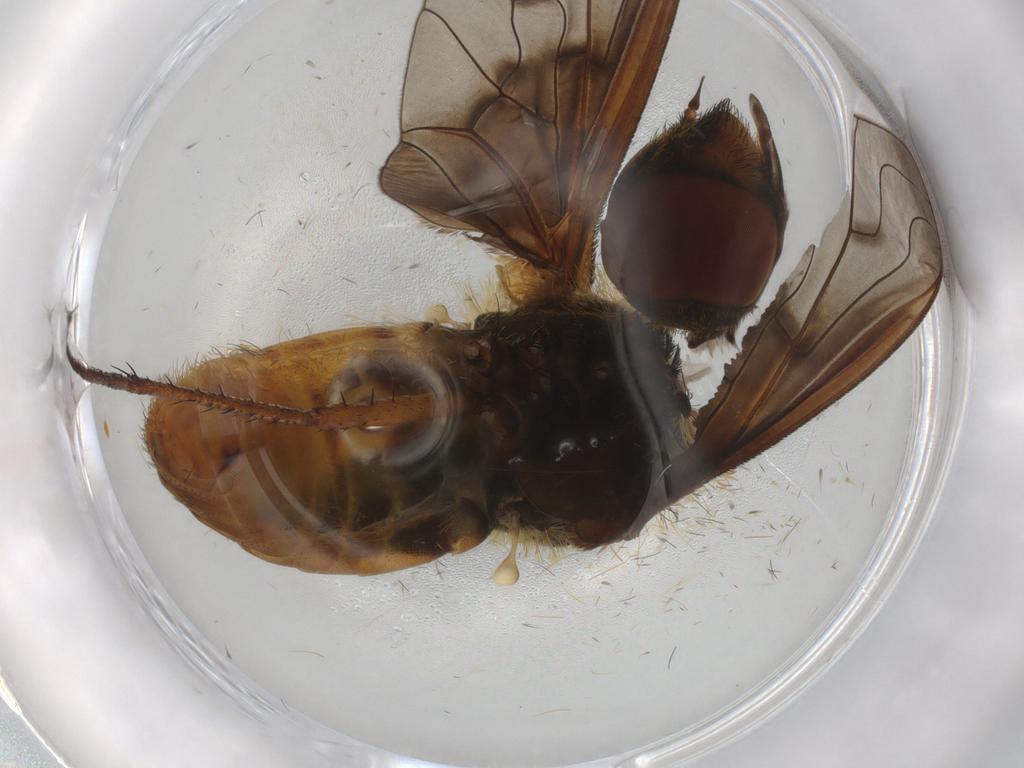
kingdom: Animalia
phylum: Arthropoda
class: Insecta
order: Diptera
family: Bombyliidae
